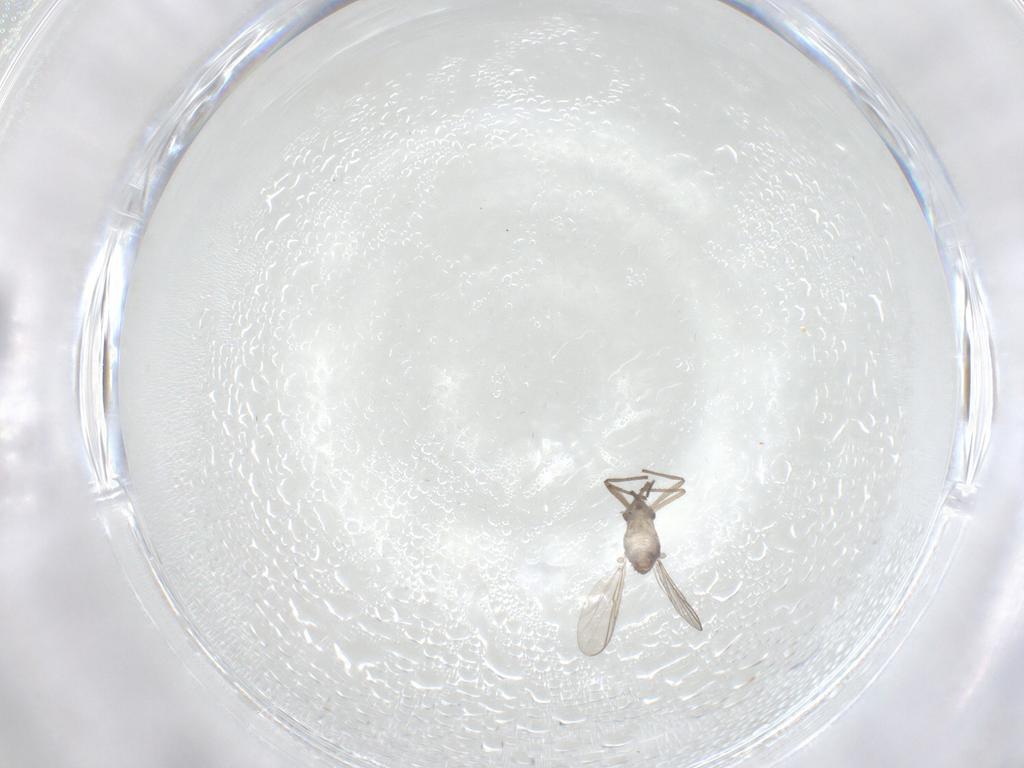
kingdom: Animalia
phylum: Arthropoda
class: Insecta
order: Diptera
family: Chironomidae
